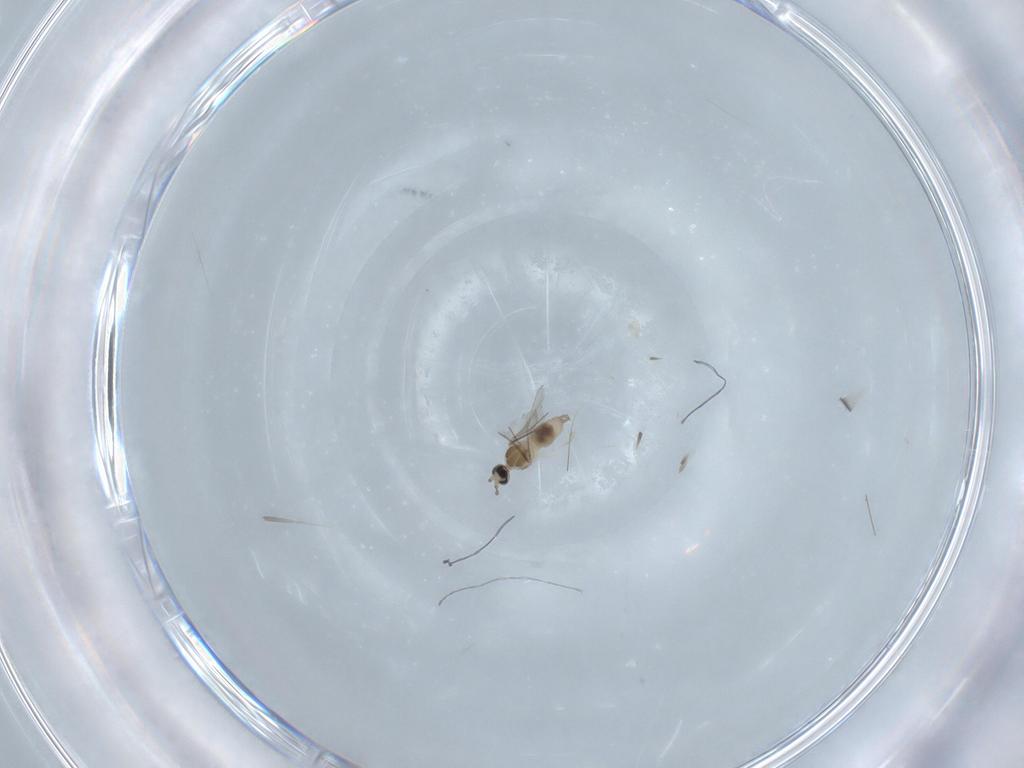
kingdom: Animalia
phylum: Arthropoda
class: Insecta
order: Diptera
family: Cecidomyiidae
